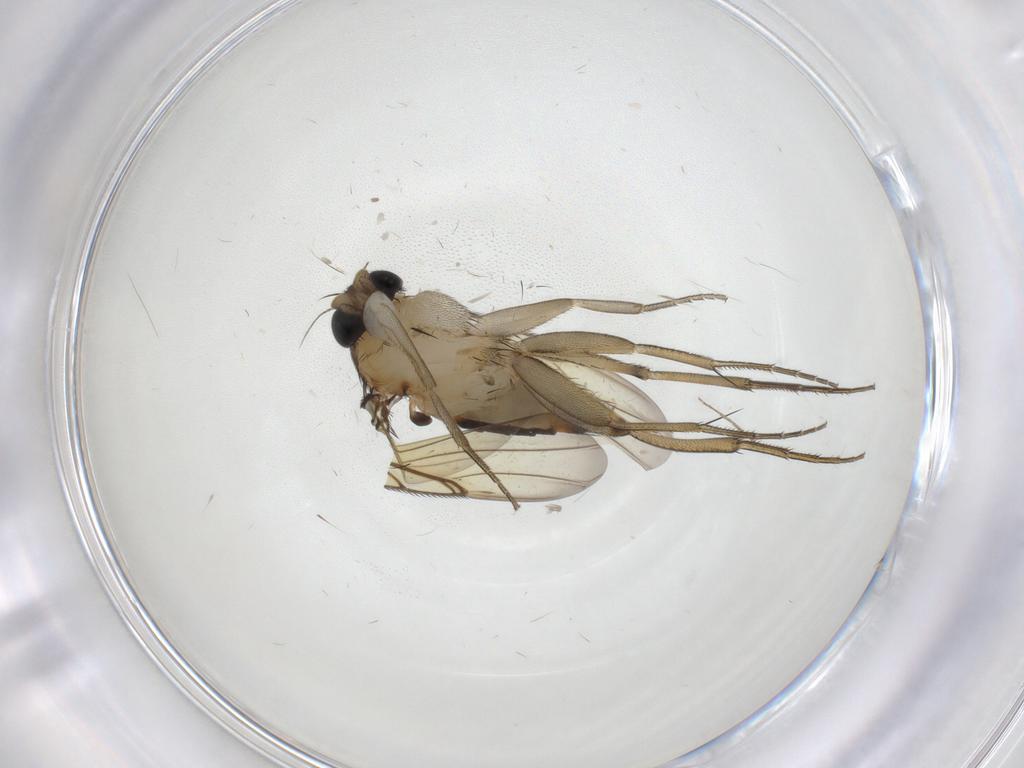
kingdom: Animalia
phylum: Arthropoda
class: Insecta
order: Diptera
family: Phoridae
